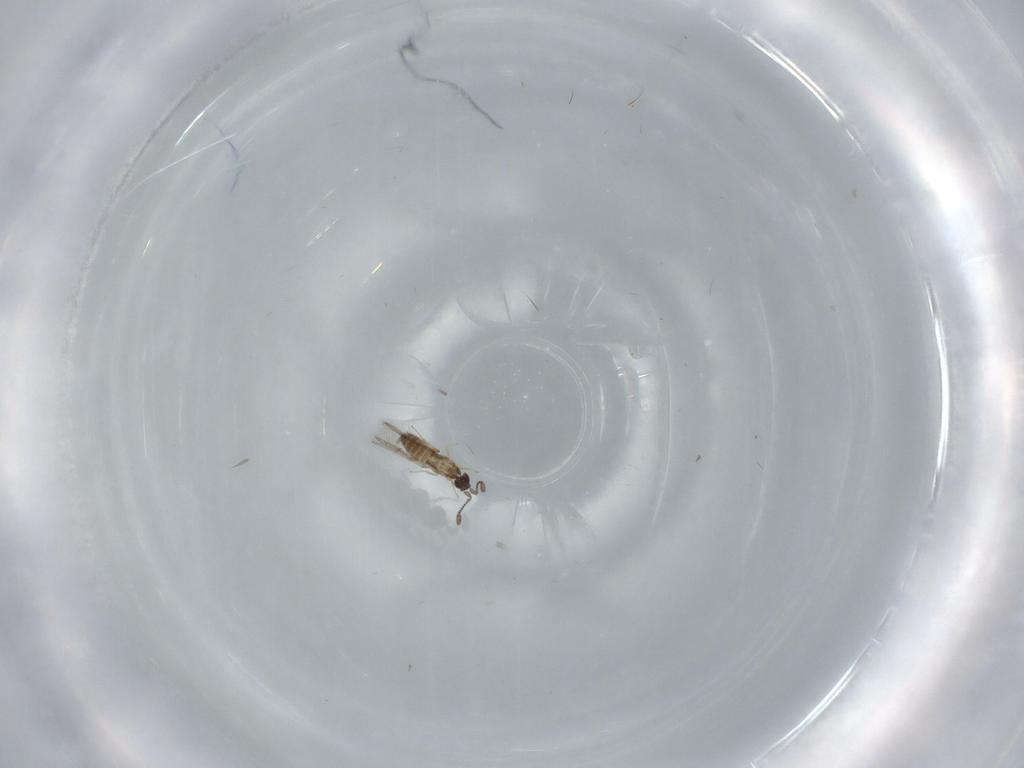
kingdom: Animalia
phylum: Arthropoda
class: Insecta
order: Hymenoptera
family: Mymaridae
